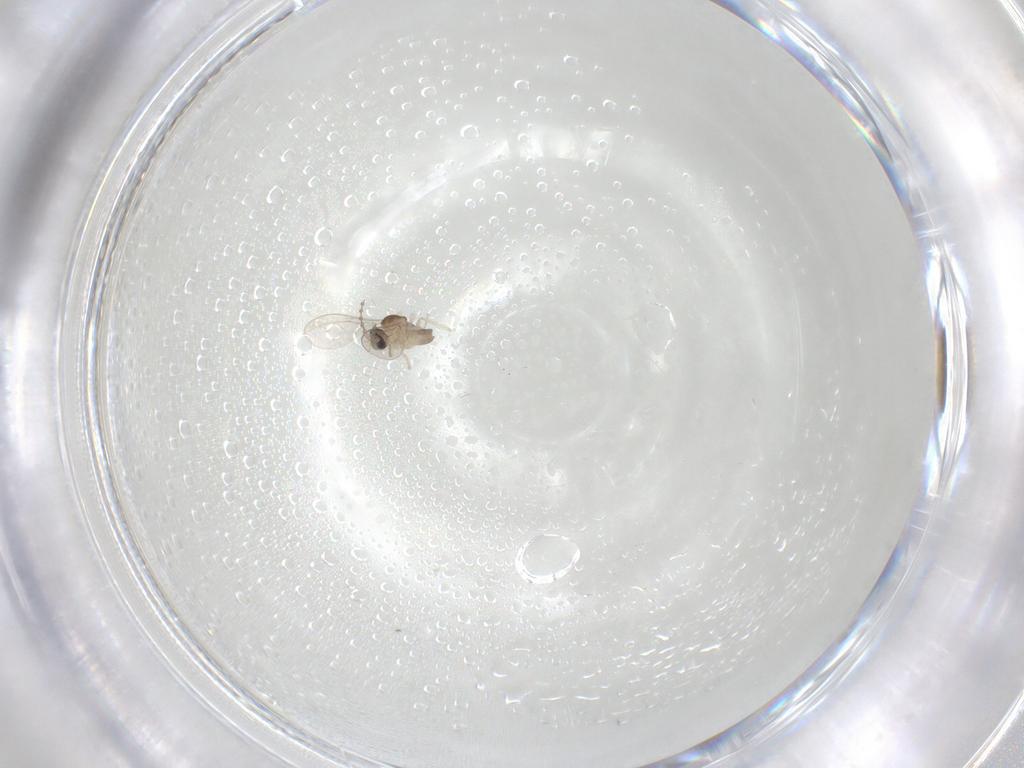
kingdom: Animalia
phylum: Arthropoda
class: Insecta
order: Diptera
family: Cecidomyiidae
